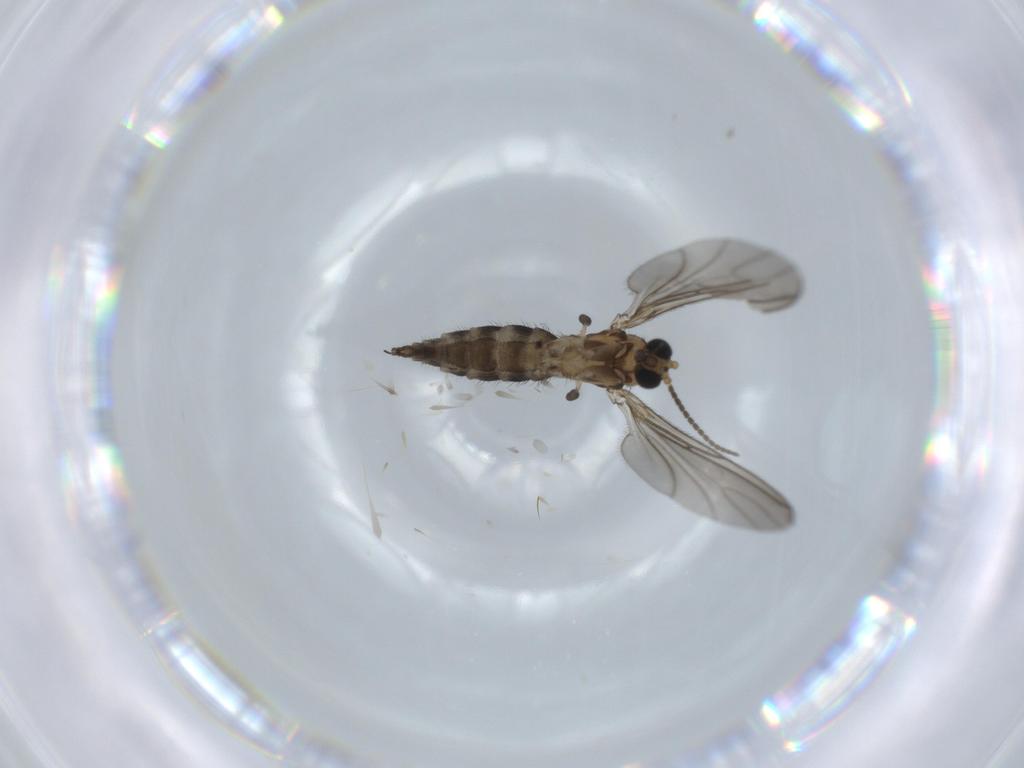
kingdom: Animalia
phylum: Arthropoda
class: Insecta
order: Diptera
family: Sciaridae
